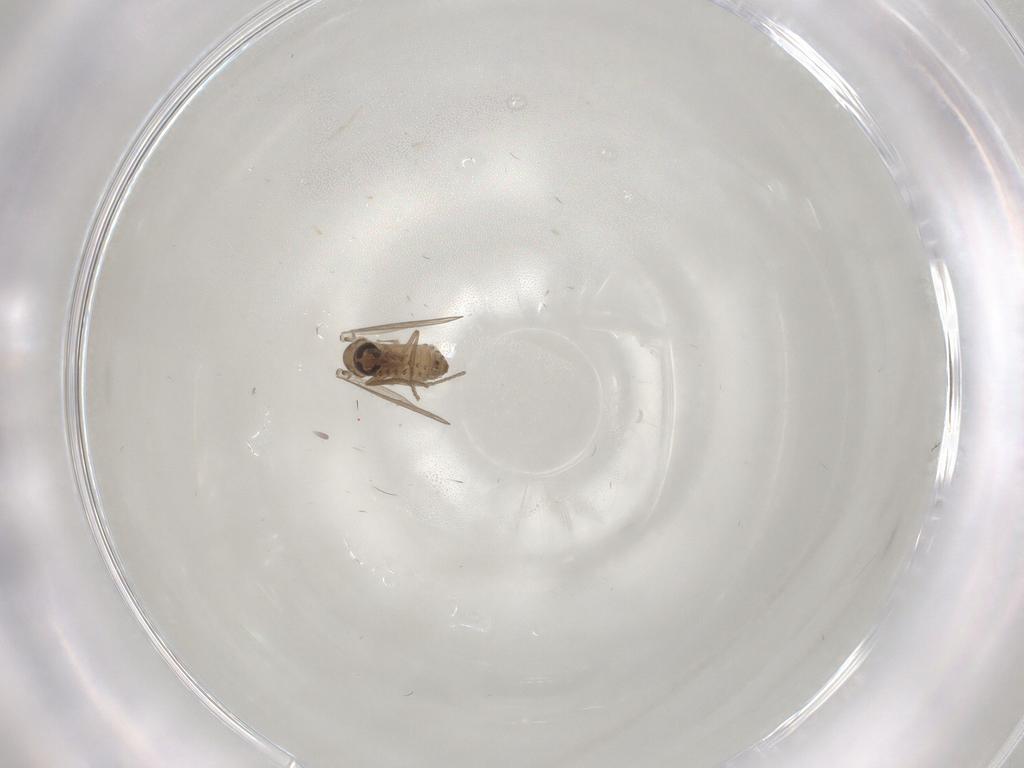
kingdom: Animalia
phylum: Arthropoda
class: Insecta
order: Diptera
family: Psychodidae
